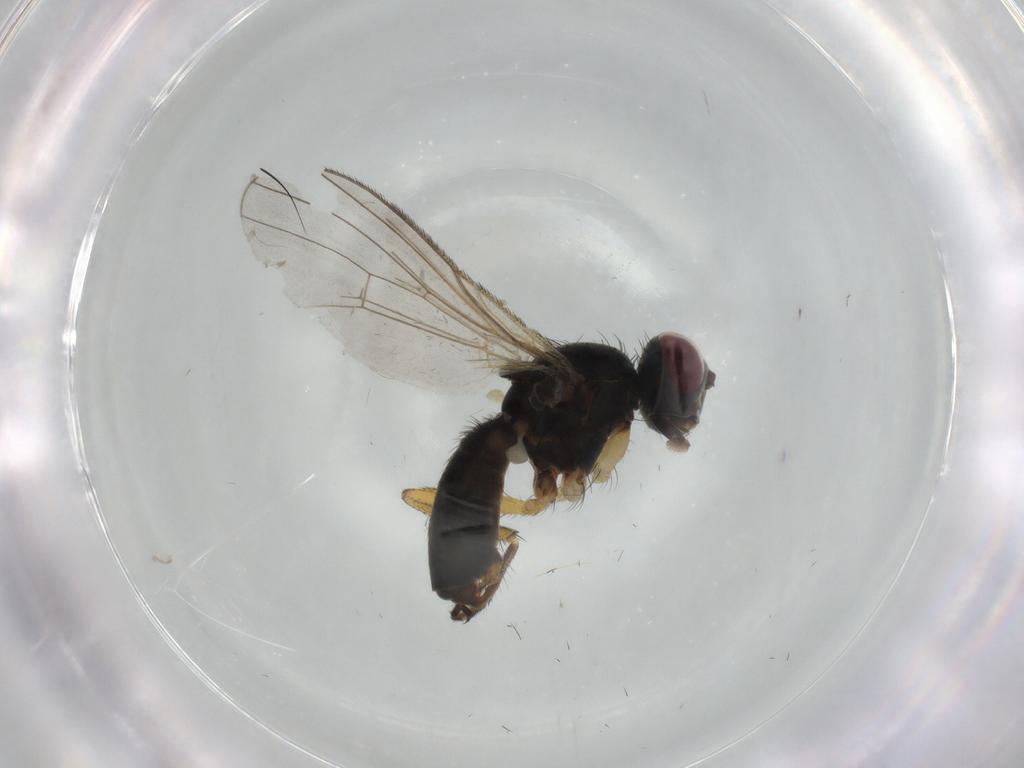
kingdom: Animalia
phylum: Arthropoda
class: Insecta
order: Diptera
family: Muscidae
